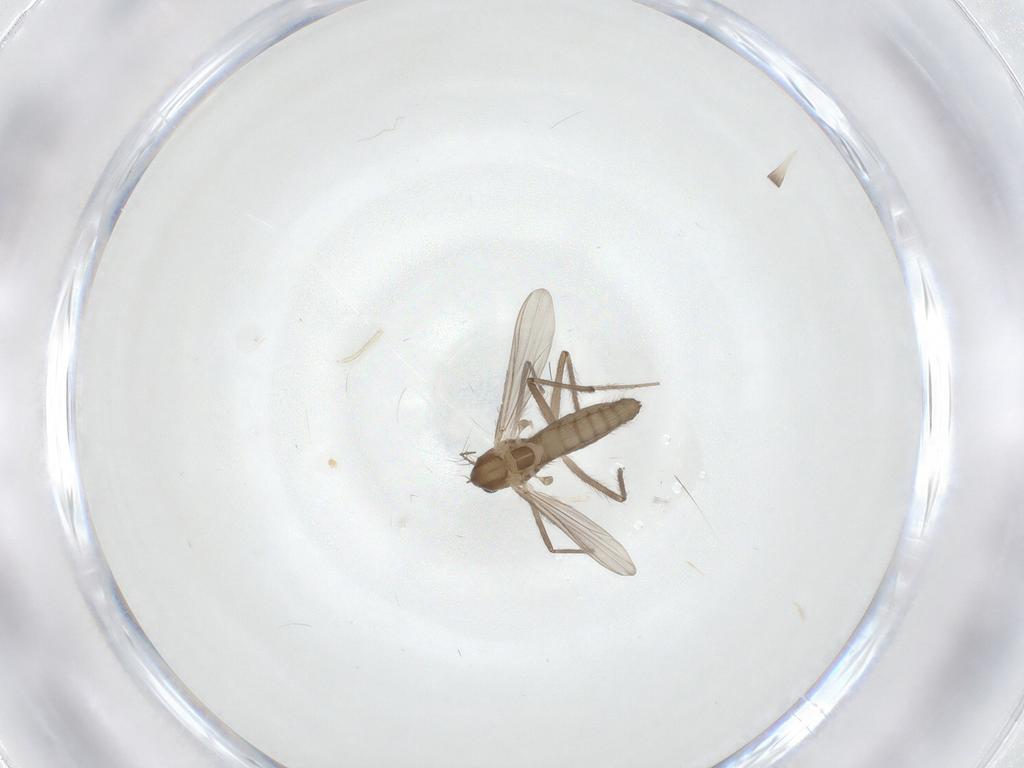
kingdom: Animalia
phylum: Arthropoda
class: Insecta
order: Diptera
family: Chironomidae
